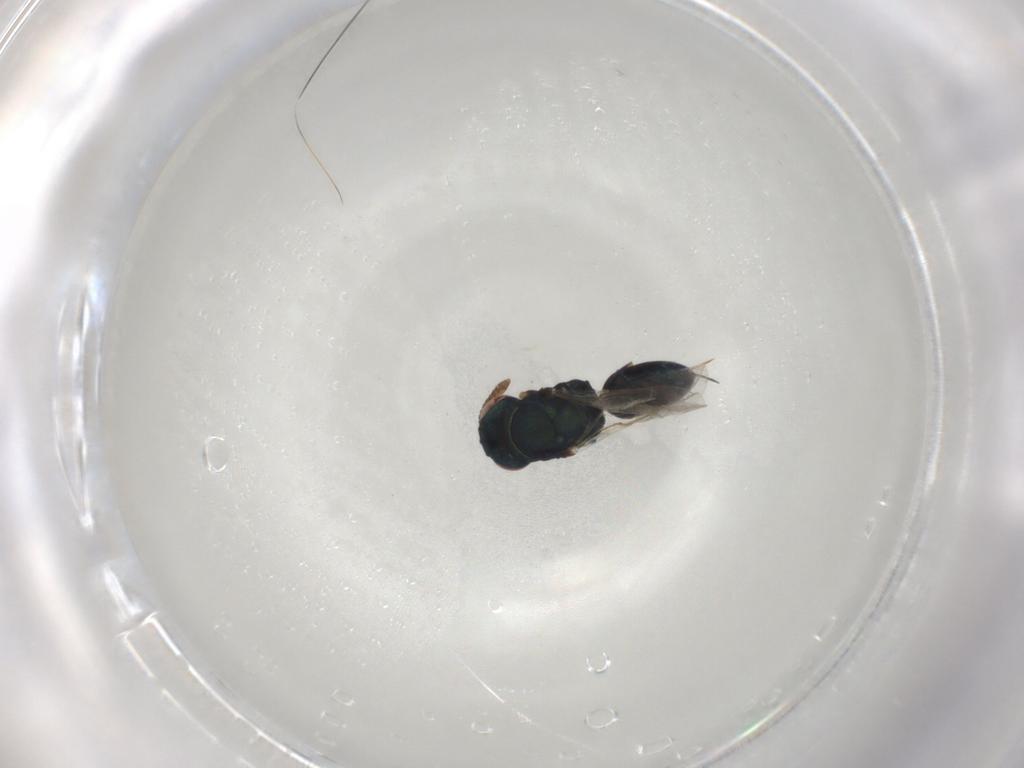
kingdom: Animalia
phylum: Arthropoda
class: Insecta
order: Hymenoptera
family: Torymidae
